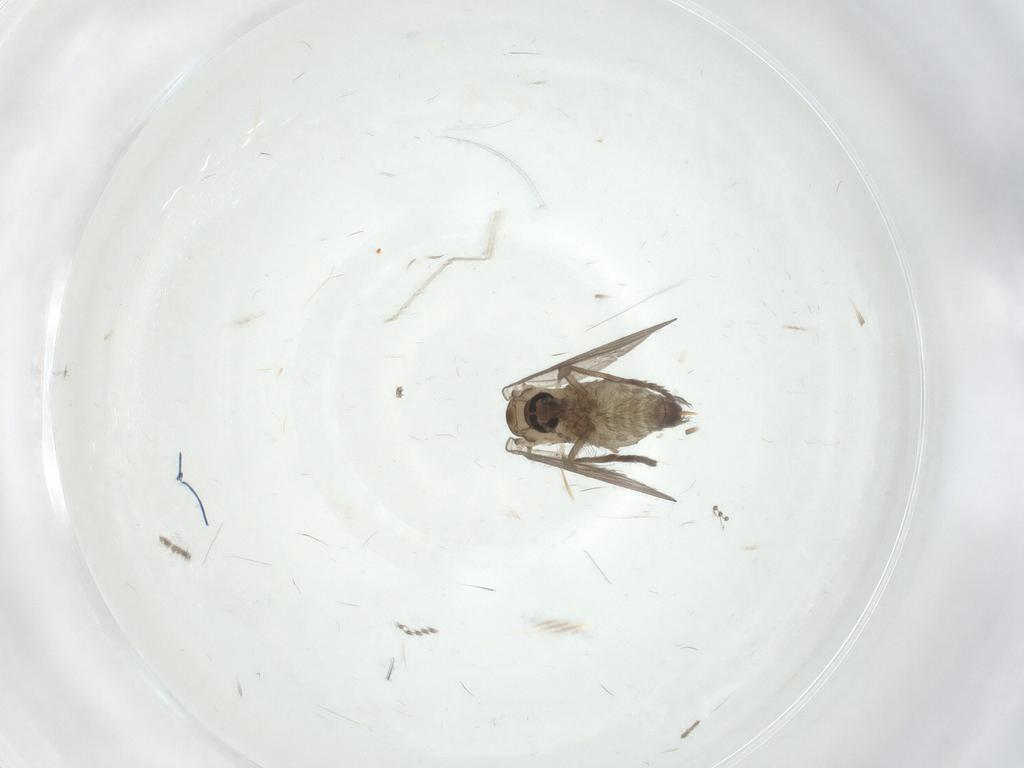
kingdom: Animalia
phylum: Arthropoda
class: Insecta
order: Diptera
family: Psychodidae
